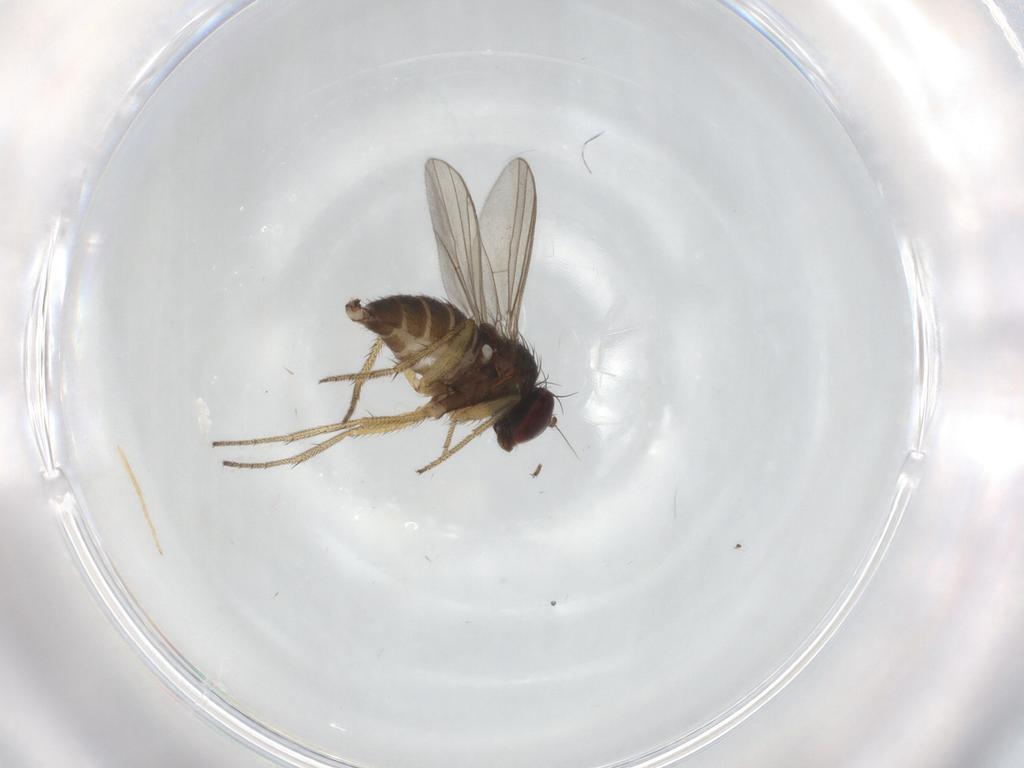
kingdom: Animalia
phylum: Arthropoda
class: Insecta
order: Diptera
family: Dolichopodidae
